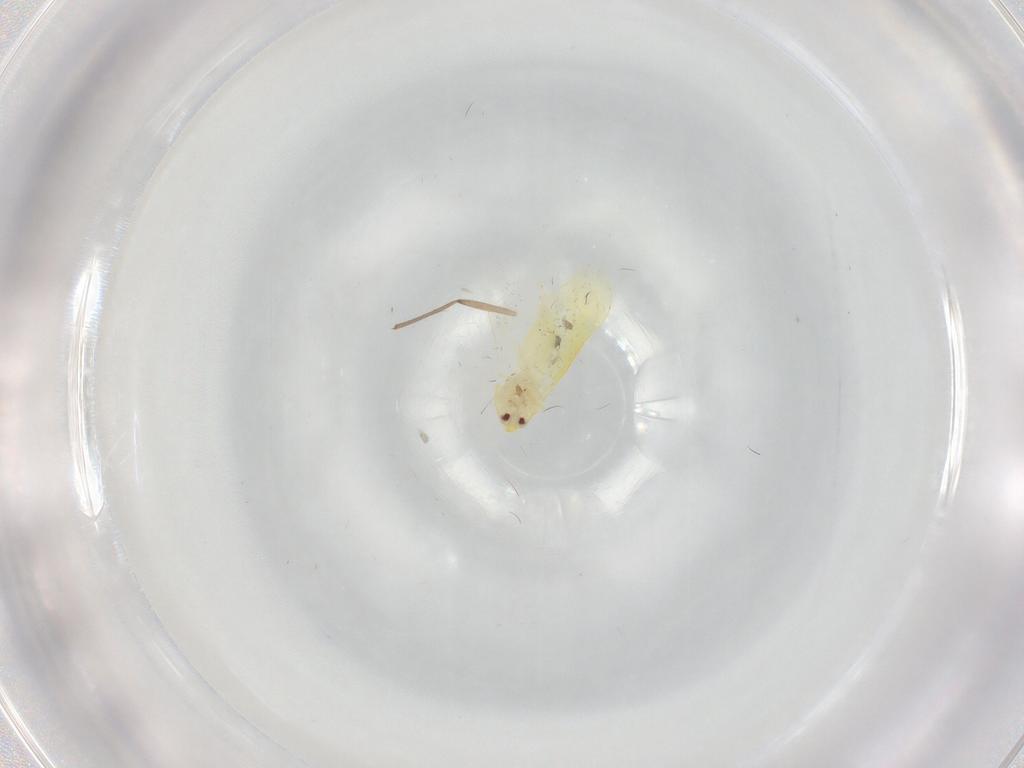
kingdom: Animalia
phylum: Arthropoda
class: Insecta
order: Hemiptera
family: Aleyrodidae
